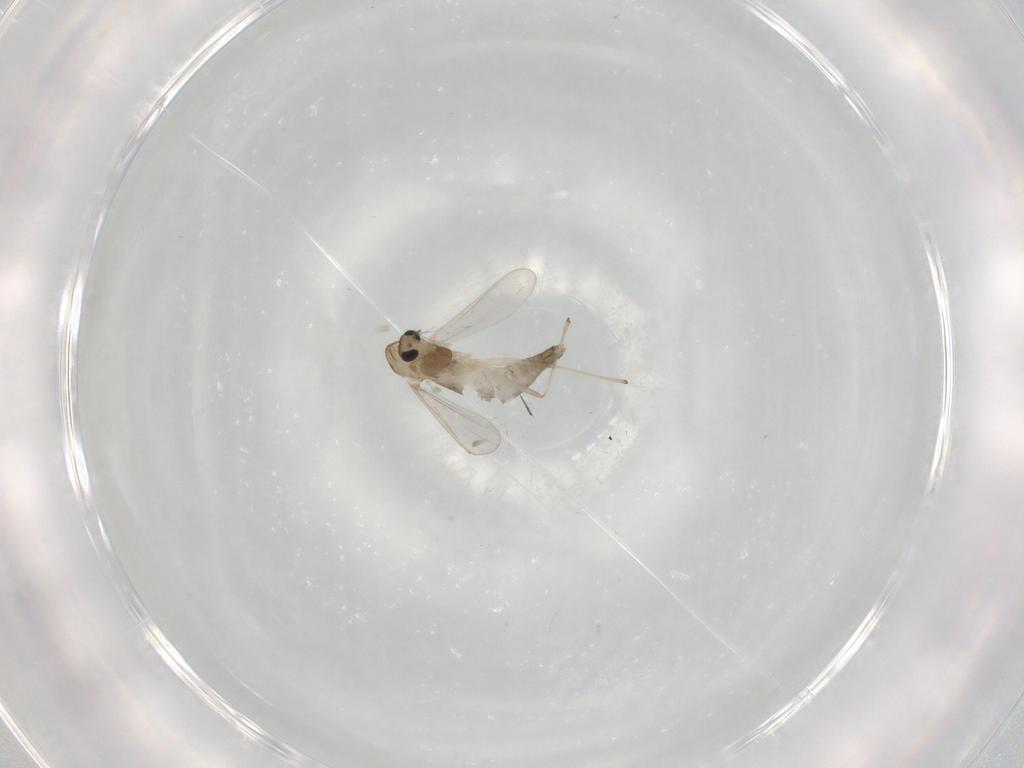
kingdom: Animalia
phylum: Arthropoda
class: Insecta
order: Diptera
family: Chironomidae
